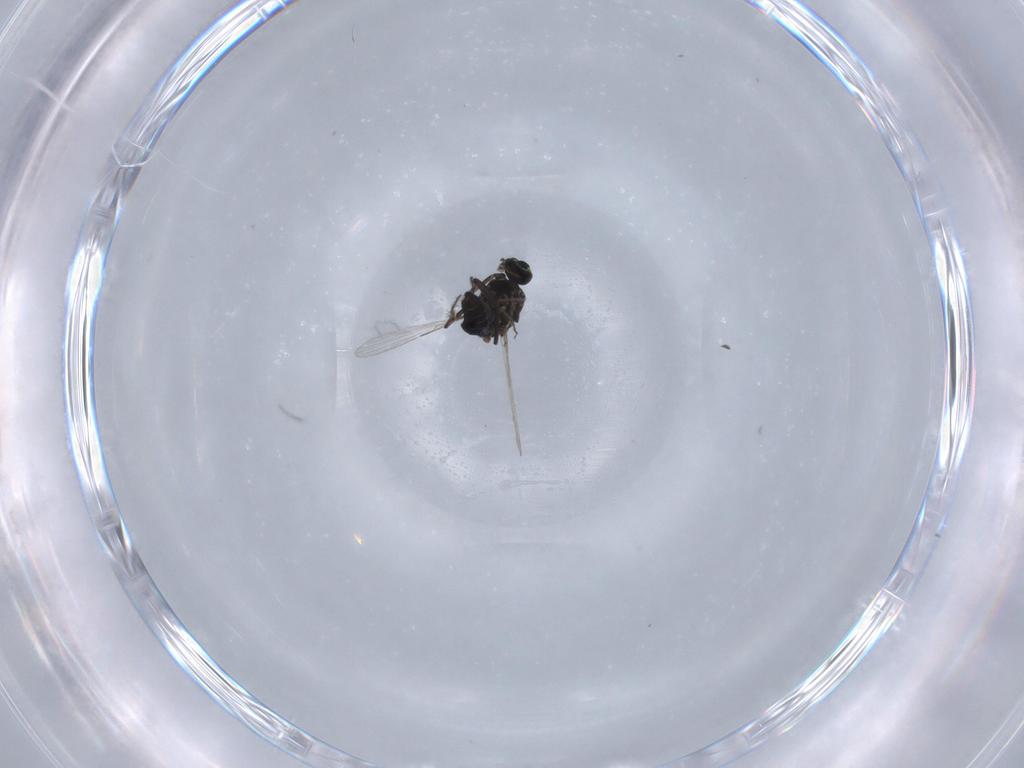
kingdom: Animalia
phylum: Arthropoda
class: Insecta
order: Diptera
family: Ceratopogonidae
